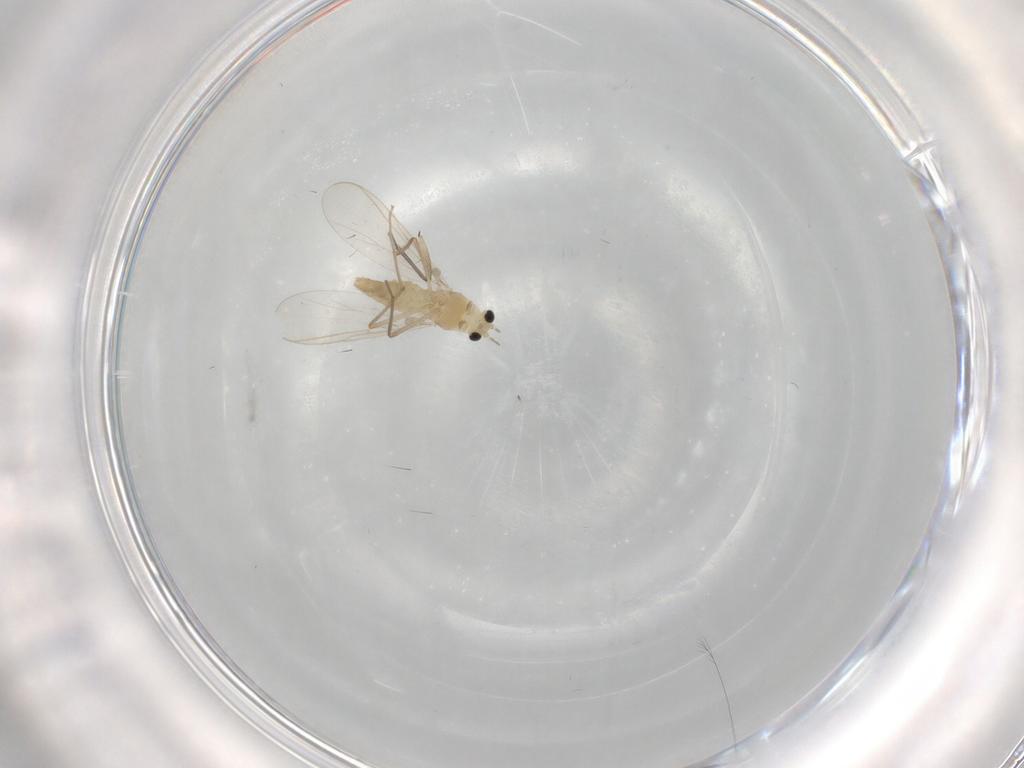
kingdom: Animalia
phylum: Arthropoda
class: Insecta
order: Diptera
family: Sciaridae
